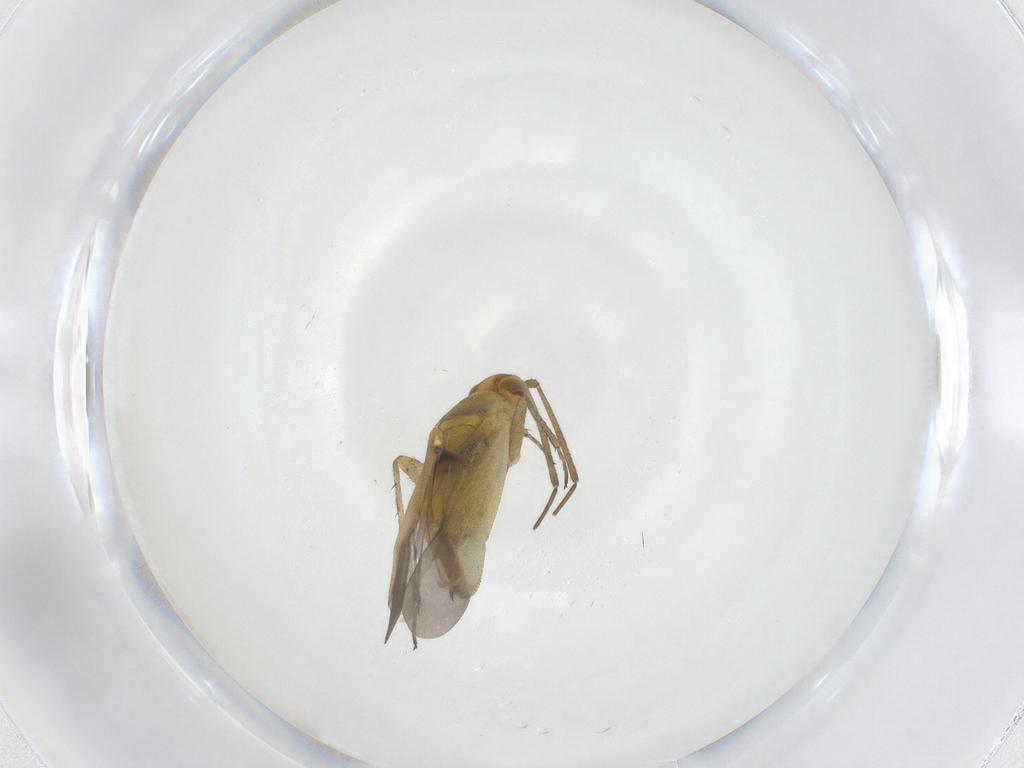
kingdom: Animalia
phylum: Arthropoda
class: Insecta
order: Hemiptera
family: Miridae
